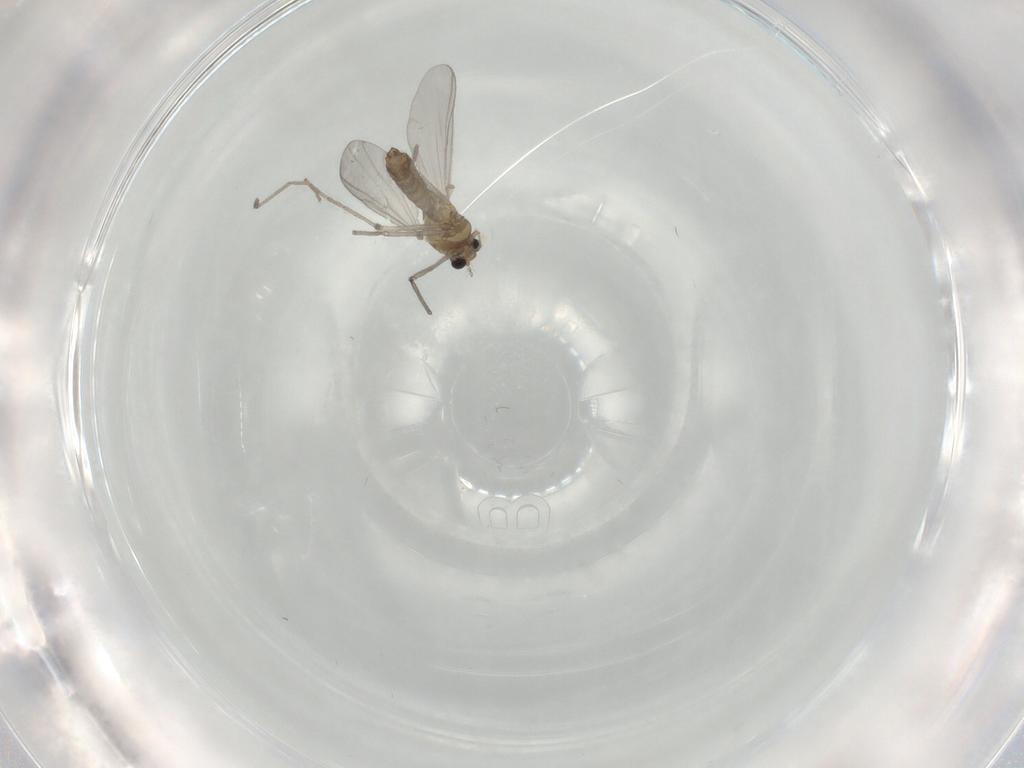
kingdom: Animalia
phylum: Arthropoda
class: Insecta
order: Diptera
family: Chironomidae
